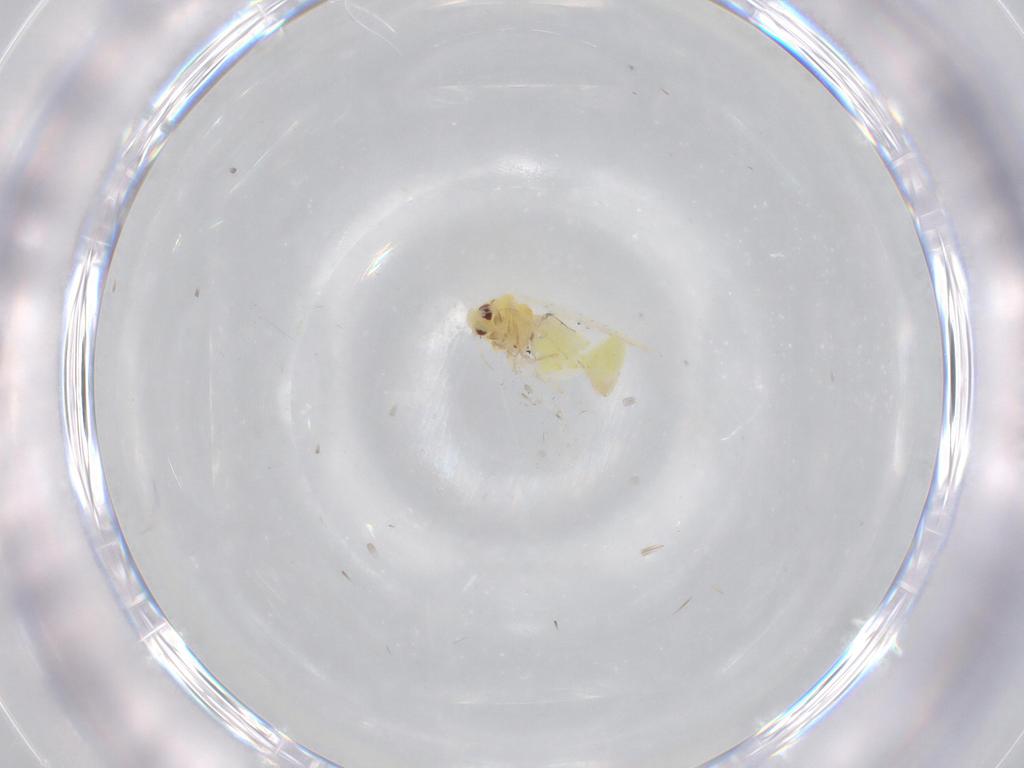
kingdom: Animalia
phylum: Arthropoda
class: Insecta
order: Hemiptera
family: Aleyrodidae
